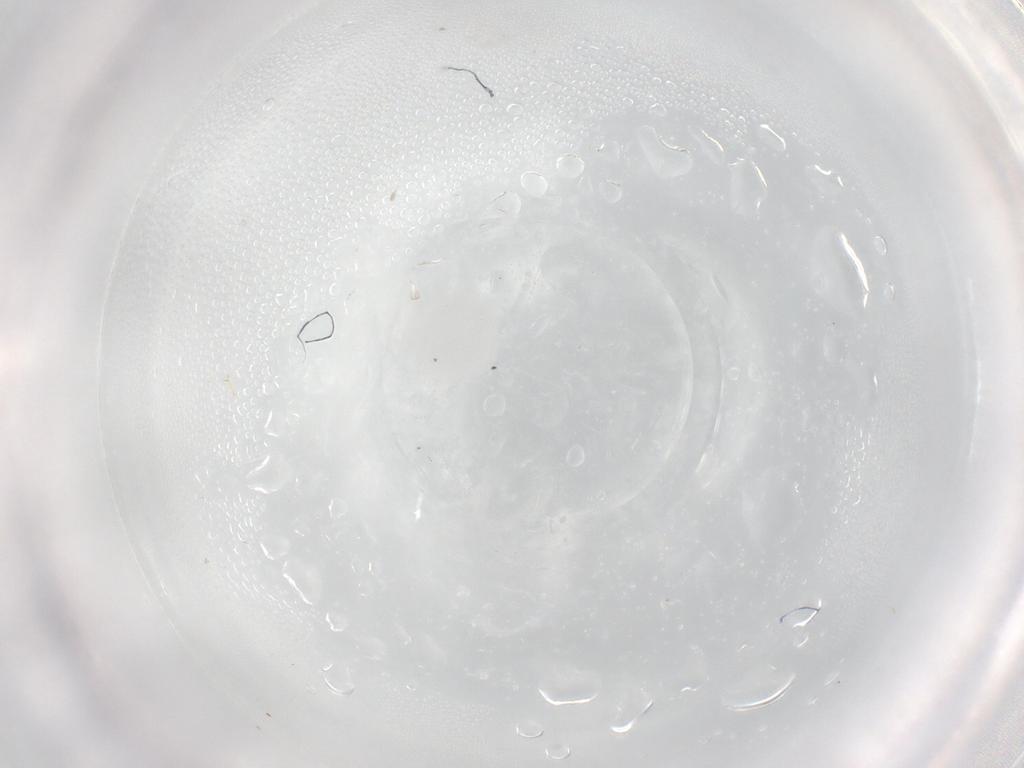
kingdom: Animalia
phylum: Arthropoda
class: Insecta
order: Diptera
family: Cecidomyiidae
